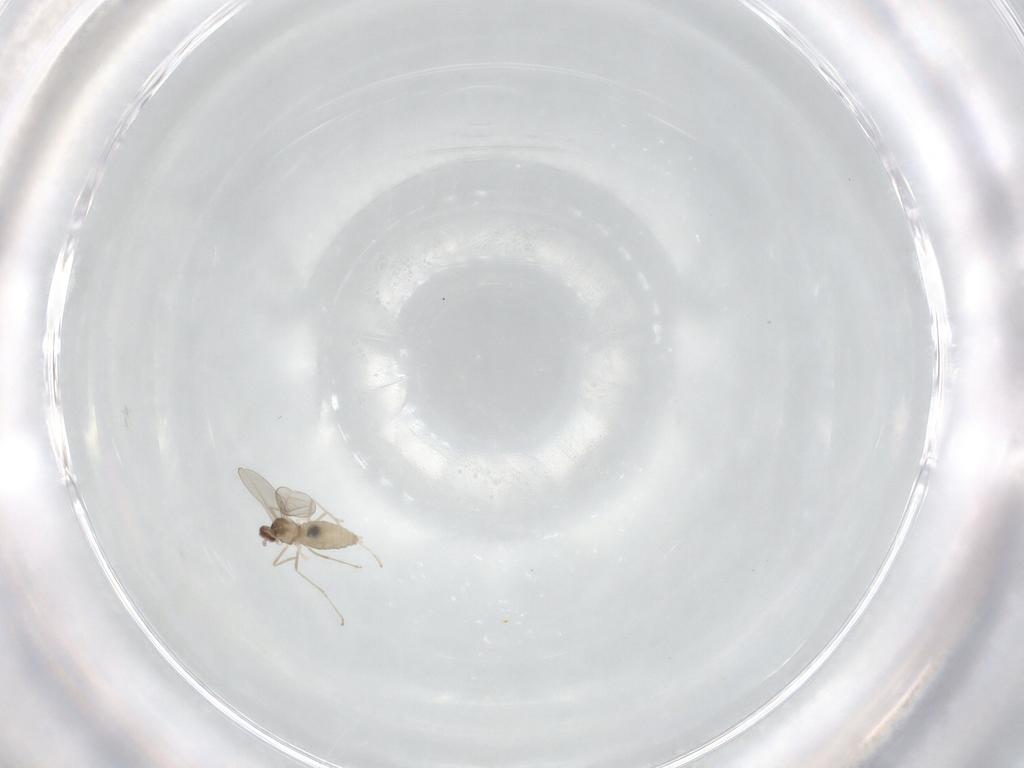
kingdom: Animalia
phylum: Arthropoda
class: Insecta
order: Diptera
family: Cecidomyiidae
